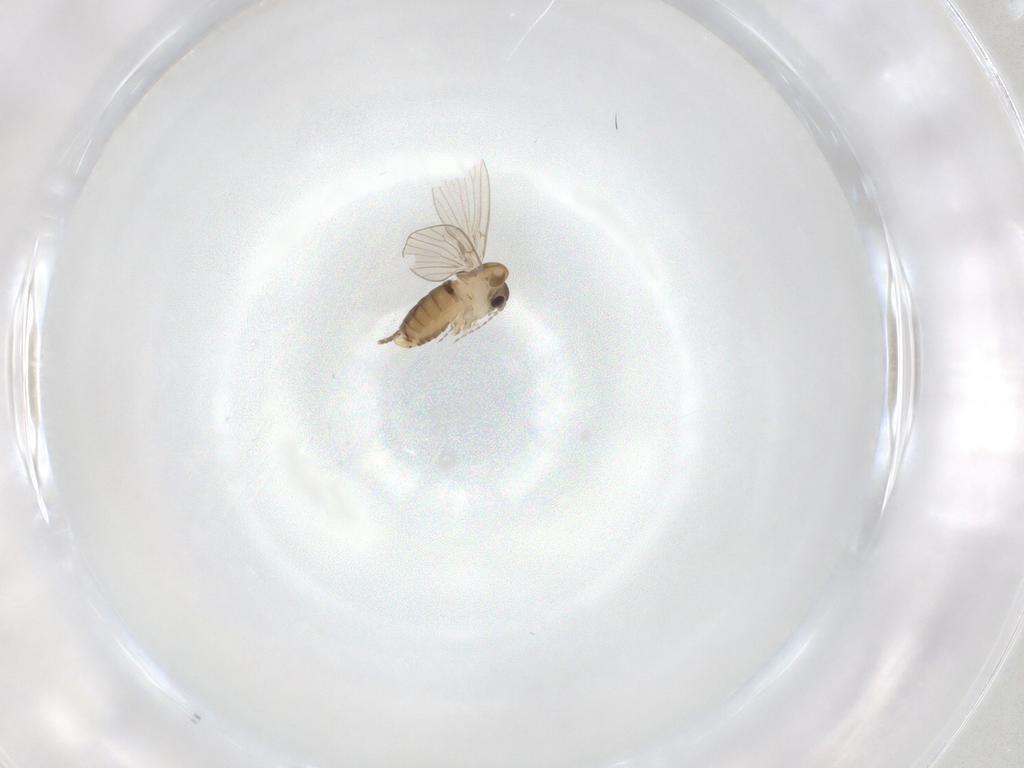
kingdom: Animalia
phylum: Arthropoda
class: Insecta
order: Diptera
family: Psychodidae
